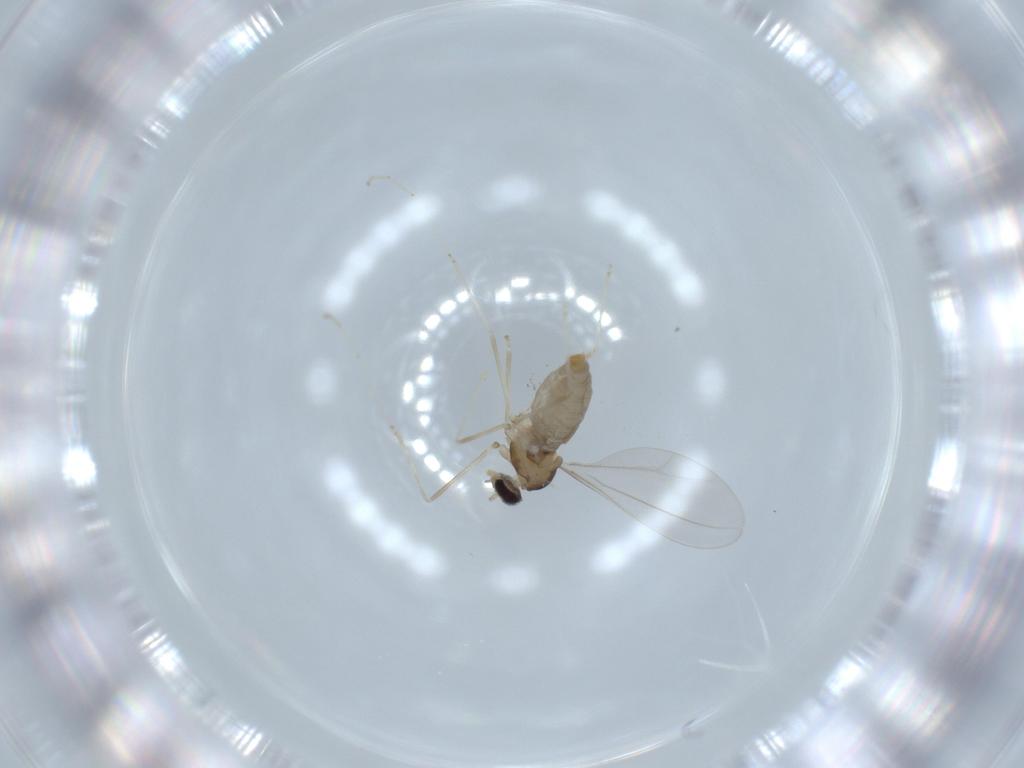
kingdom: Animalia
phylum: Arthropoda
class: Insecta
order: Diptera
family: Cecidomyiidae
